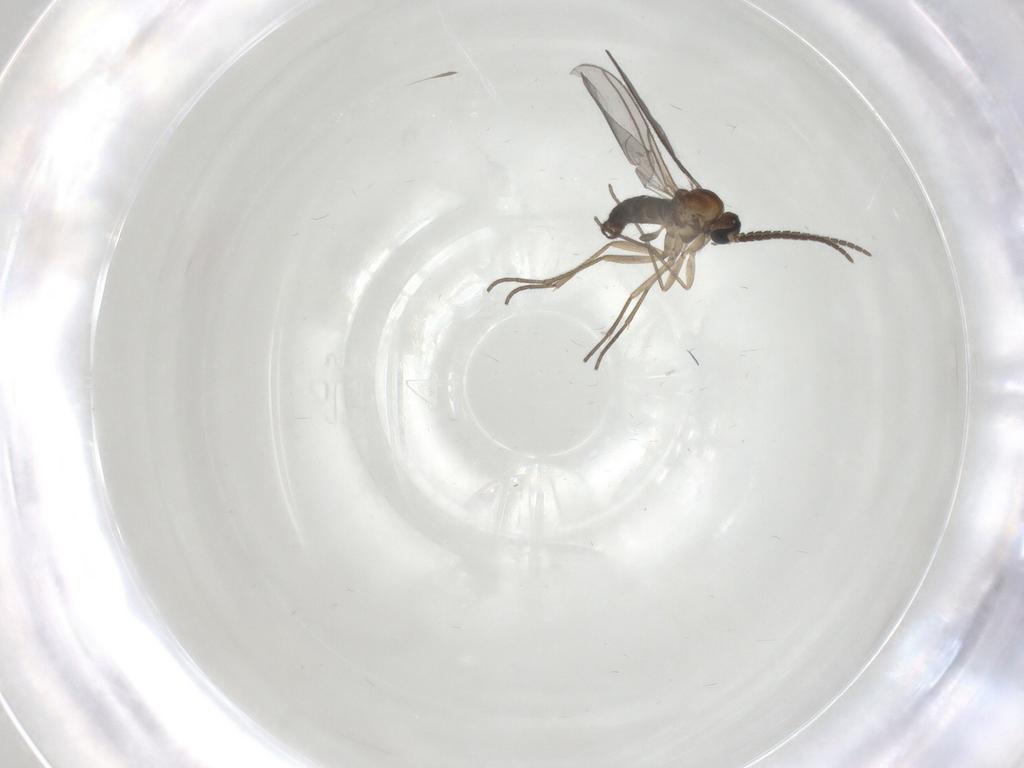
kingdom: Animalia
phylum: Arthropoda
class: Insecta
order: Diptera
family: Sciaridae
